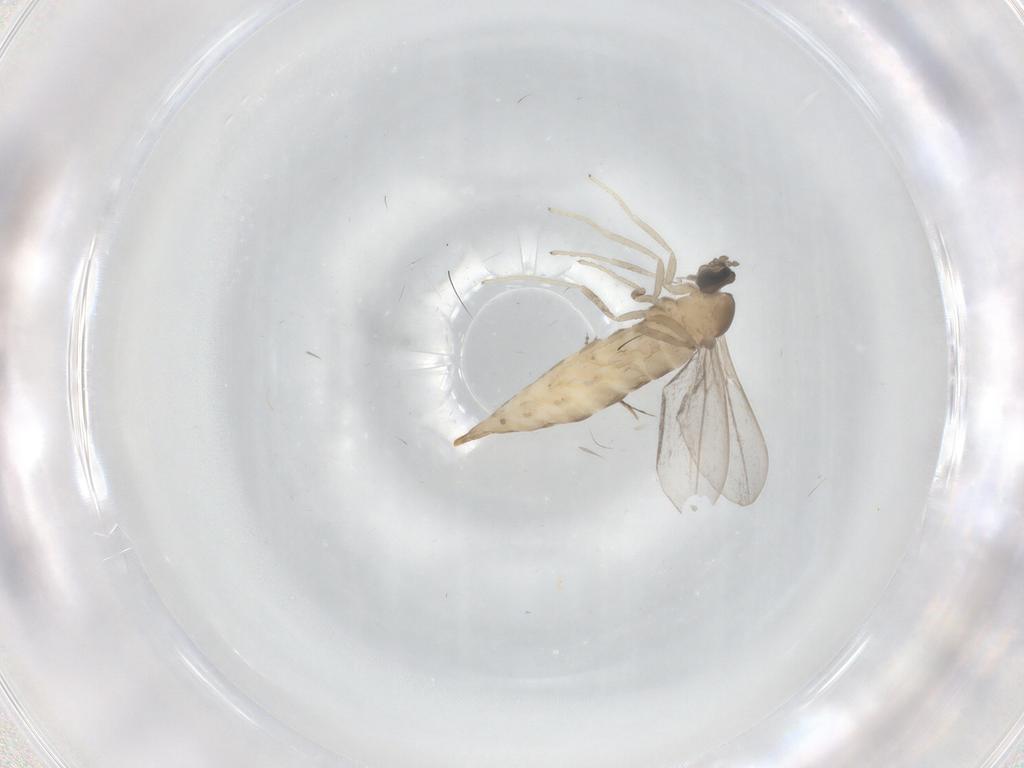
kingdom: Animalia
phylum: Arthropoda
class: Insecta
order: Diptera
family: Cecidomyiidae
